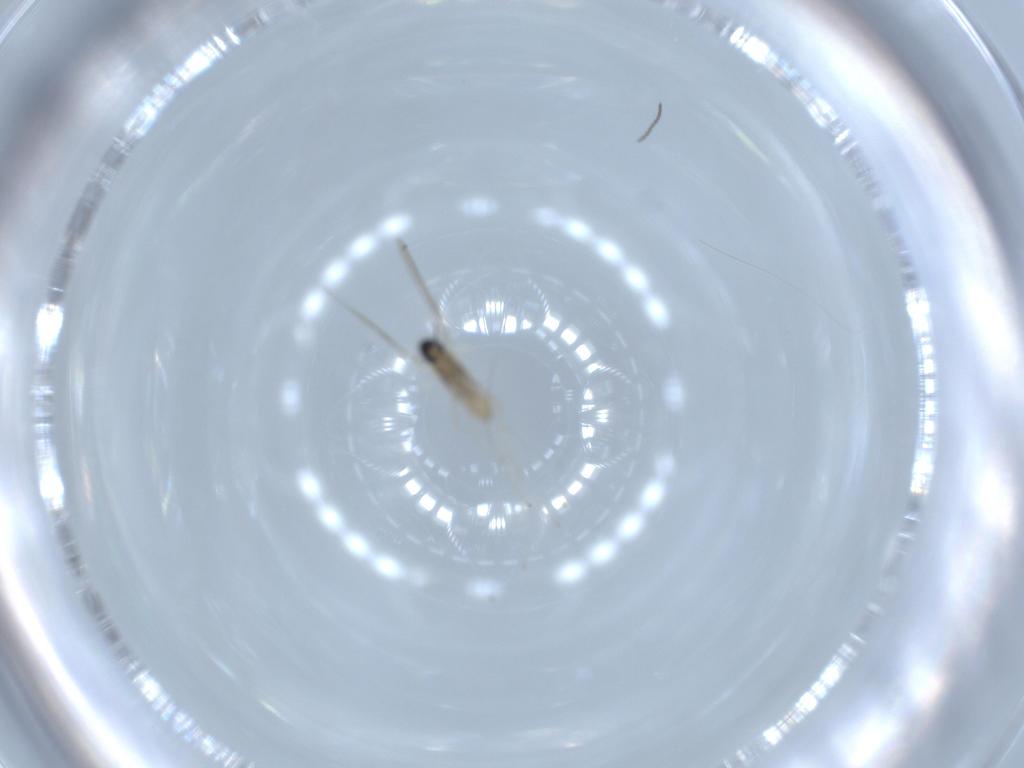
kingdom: Animalia
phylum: Arthropoda
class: Insecta
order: Diptera
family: Cecidomyiidae
